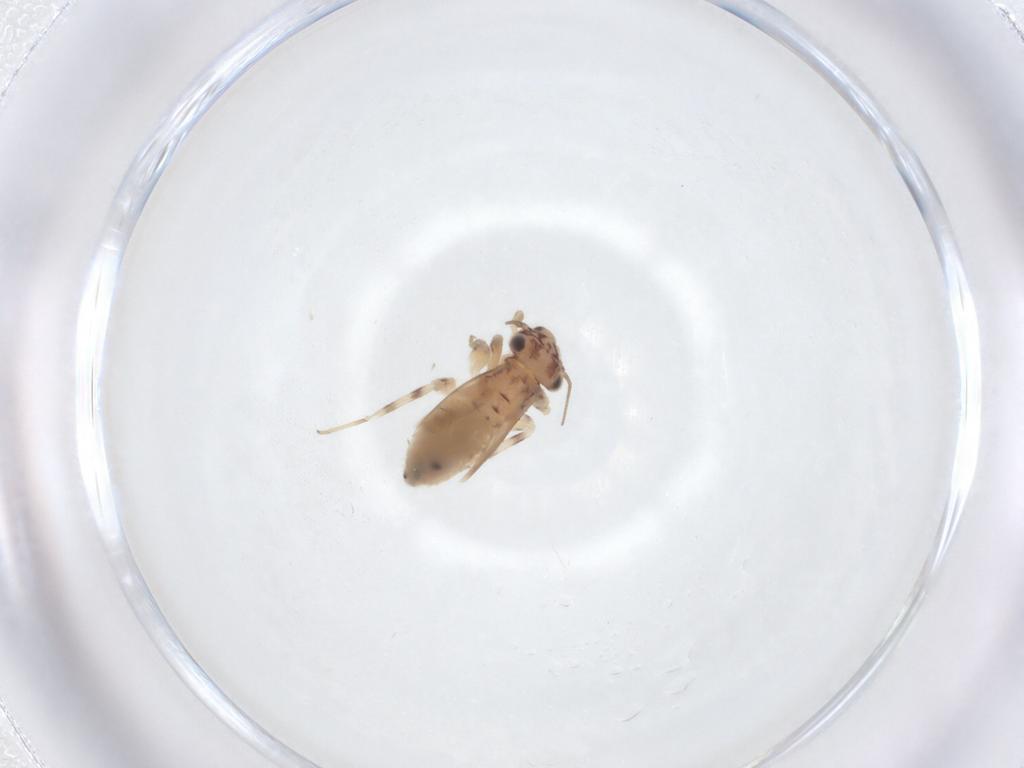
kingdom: Animalia
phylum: Arthropoda
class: Insecta
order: Psocodea
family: Lepidopsocidae
